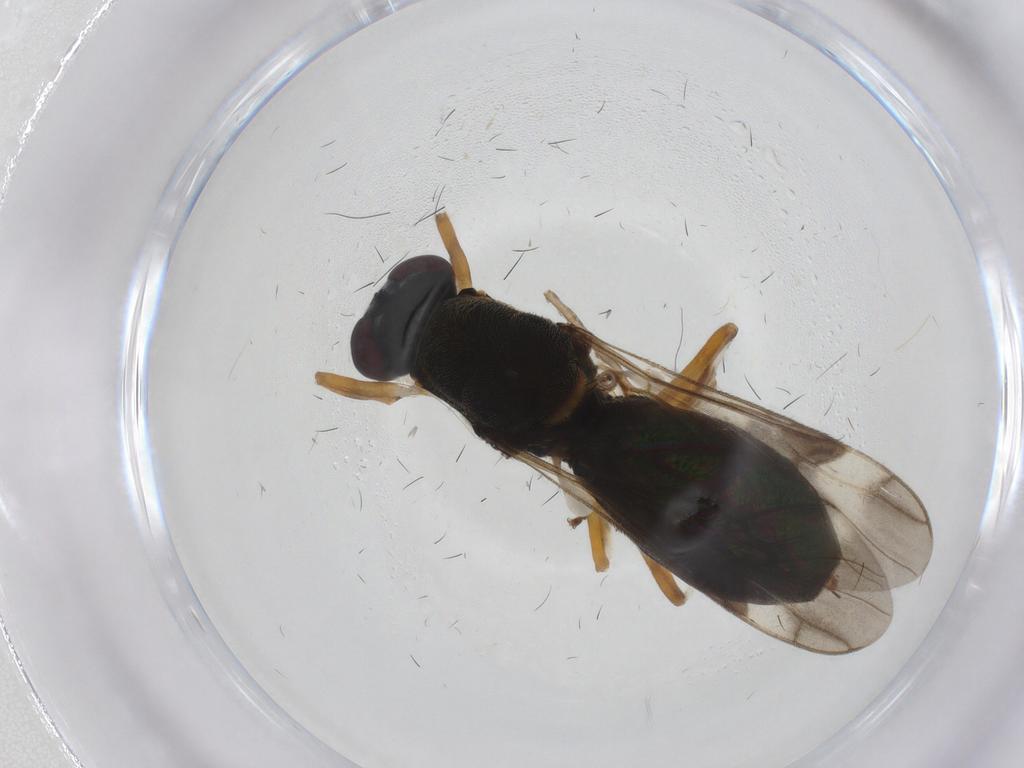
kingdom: Animalia
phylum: Arthropoda
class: Insecta
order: Diptera
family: Stratiomyidae
